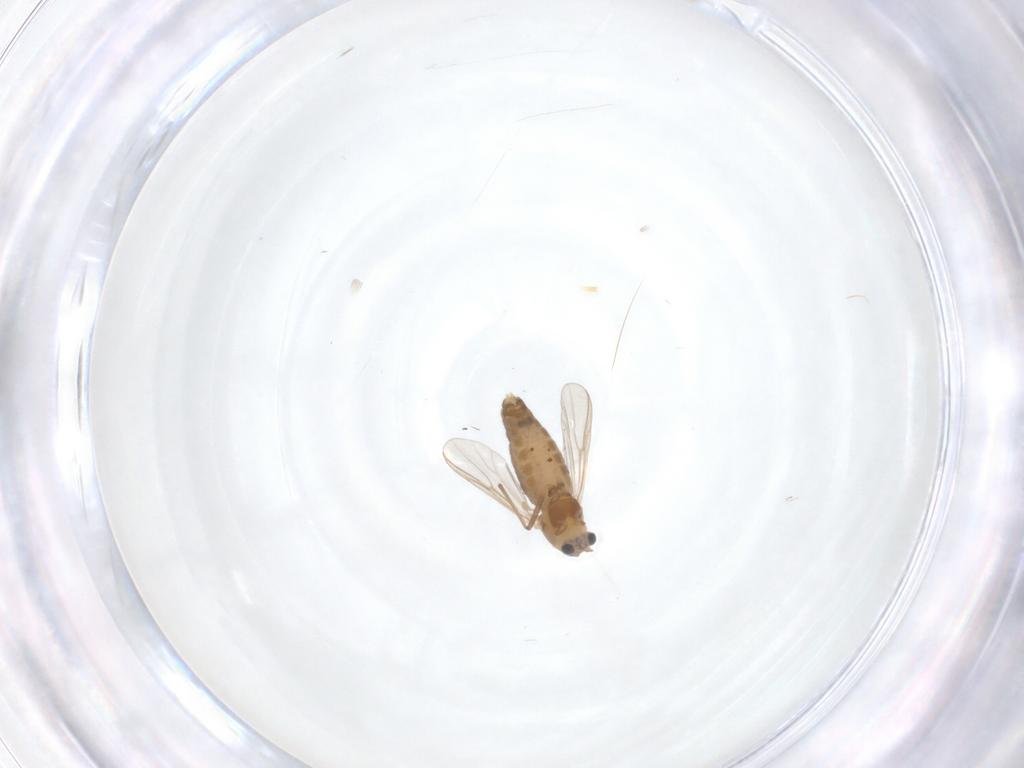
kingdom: Animalia
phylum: Arthropoda
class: Insecta
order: Diptera
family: Chironomidae
